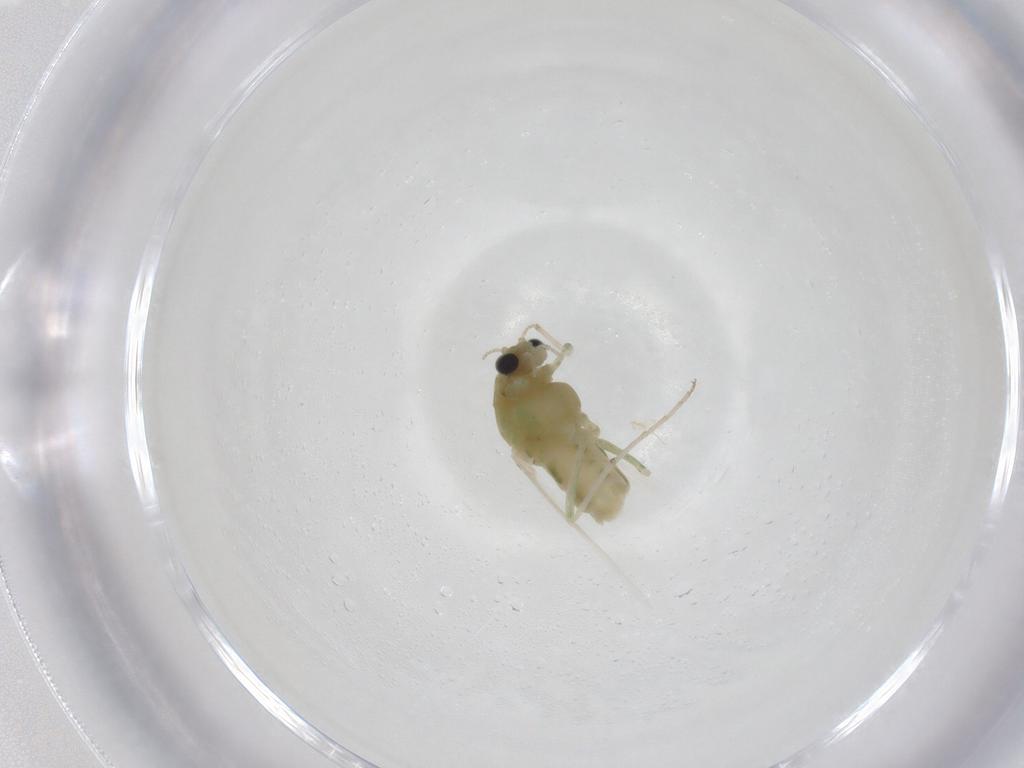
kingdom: Animalia
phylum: Arthropoda
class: Insecta
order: Diptera
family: Chironomidae
